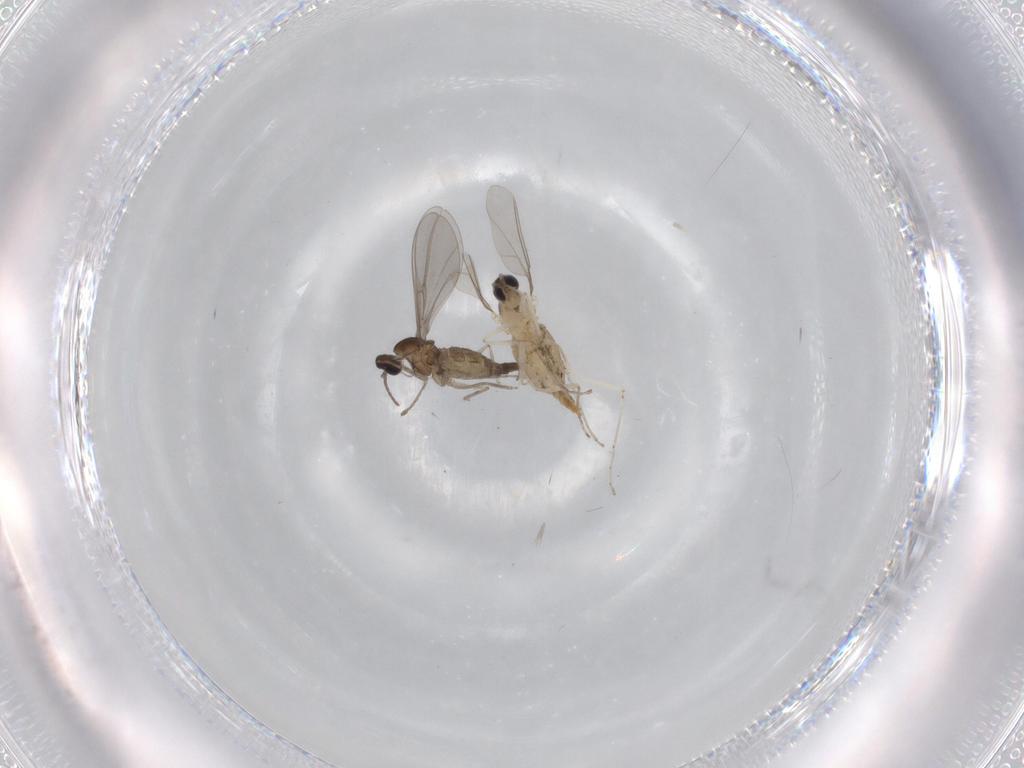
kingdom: Animalia
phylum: Arthropoda
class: Insecta
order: Diptera
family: Cecidomyiidae
